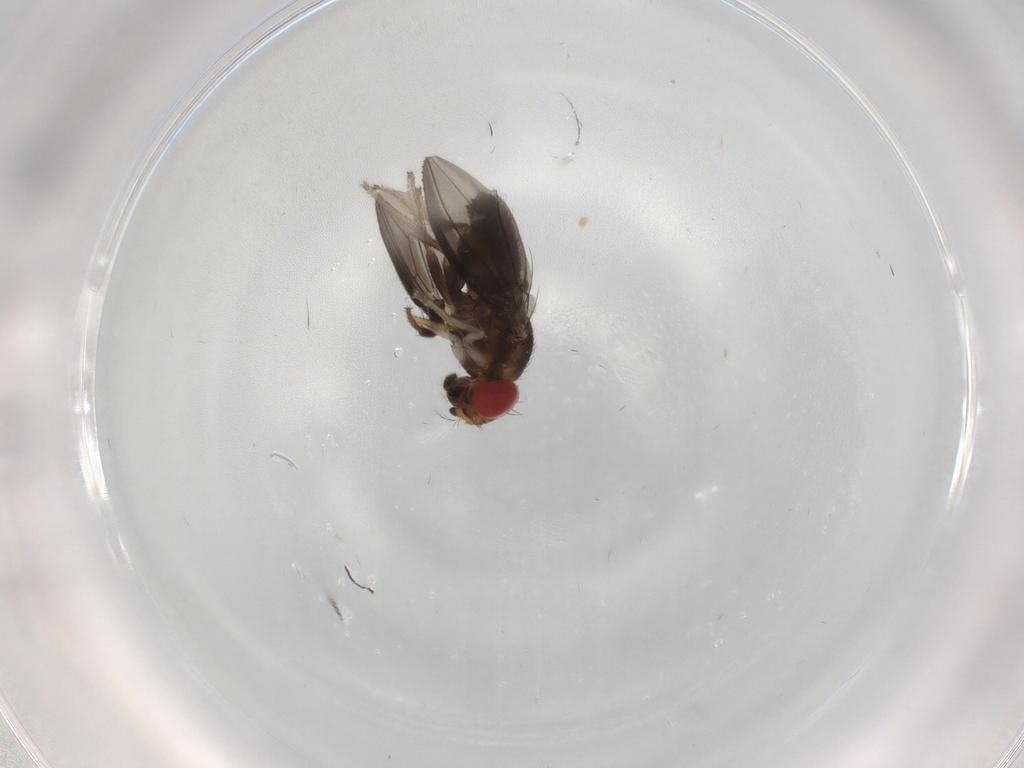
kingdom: Animalia
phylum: Arthropoda
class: Insecta
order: Diptera
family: Drosophilidae
